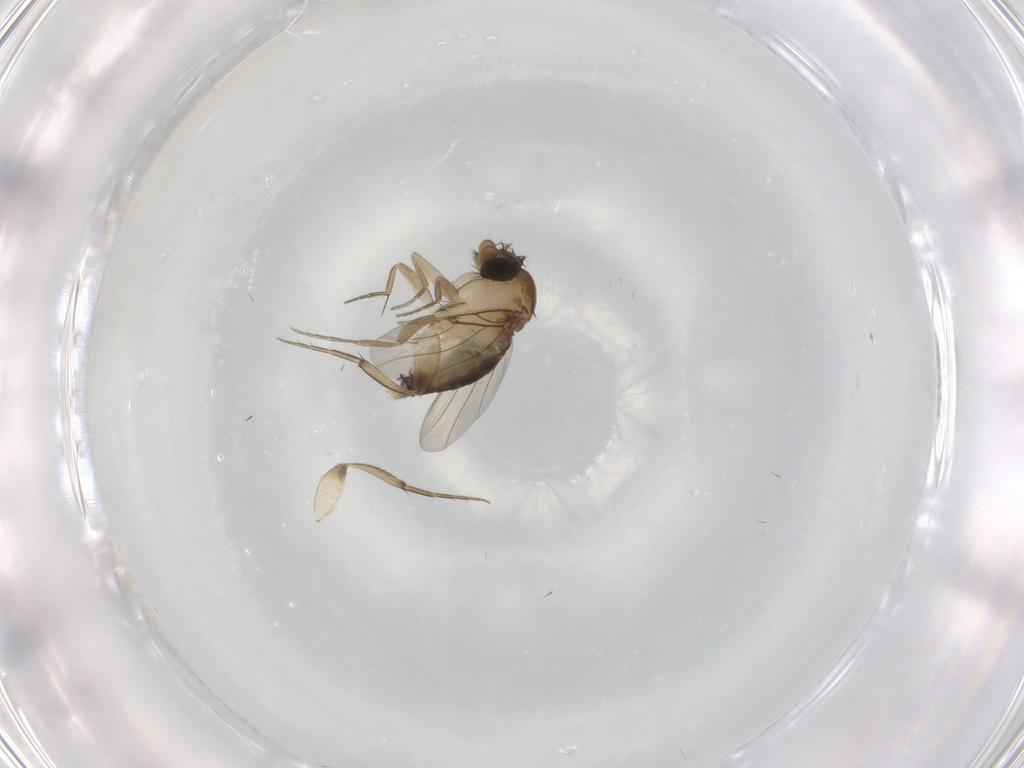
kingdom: Animalia
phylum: Arthropoda
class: Insecta
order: Diptera
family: Phoridae
